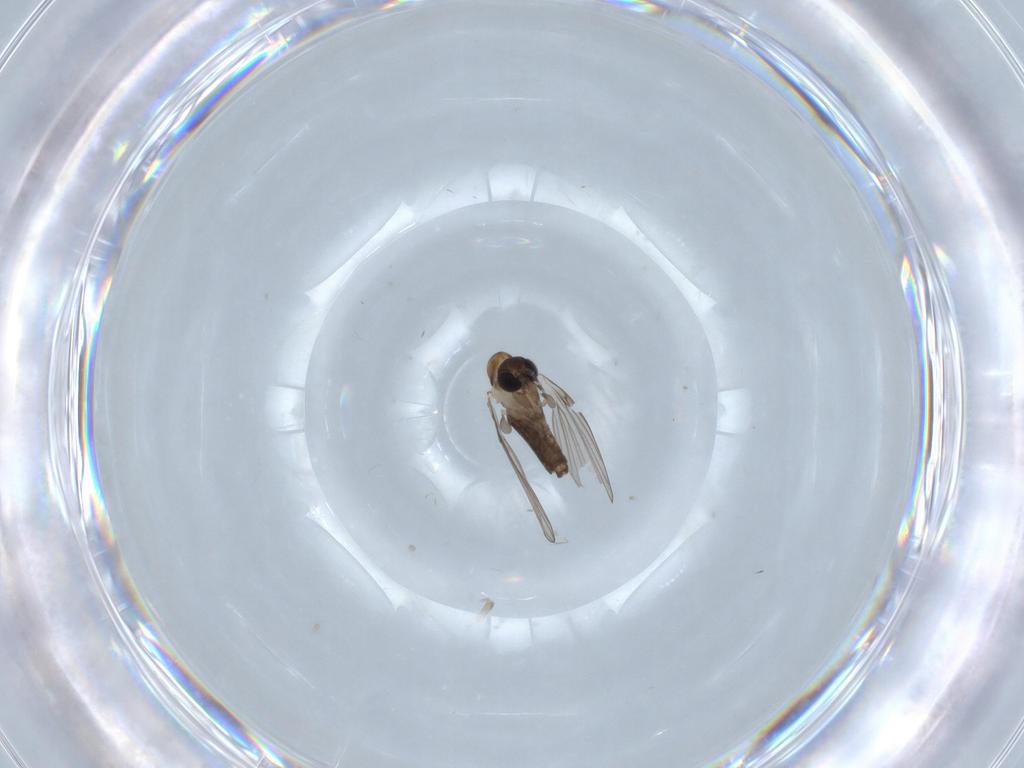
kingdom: Animalia
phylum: Arthropoda
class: Insecta
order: Diptera
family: Psychodidae
